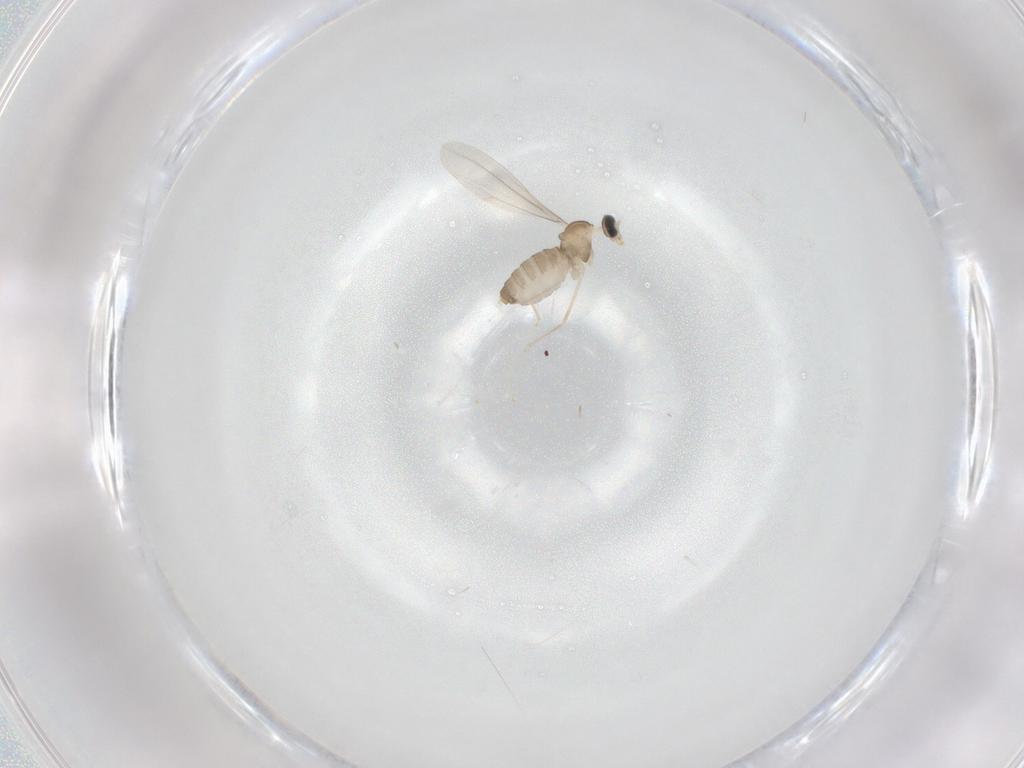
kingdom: Animalia
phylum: Arthropoda
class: Insecta
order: Diptera
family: Cecidomyiidae
